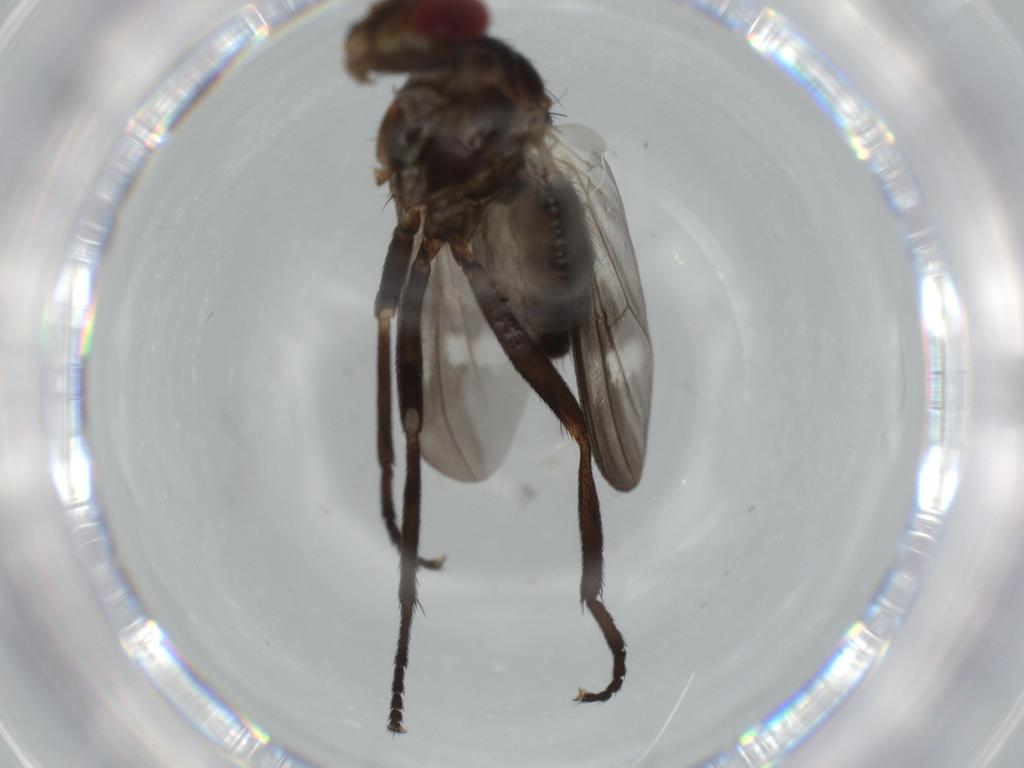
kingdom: Animalia
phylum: Arthropoda
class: Insecta
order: Diptera
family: Calliphoridae
